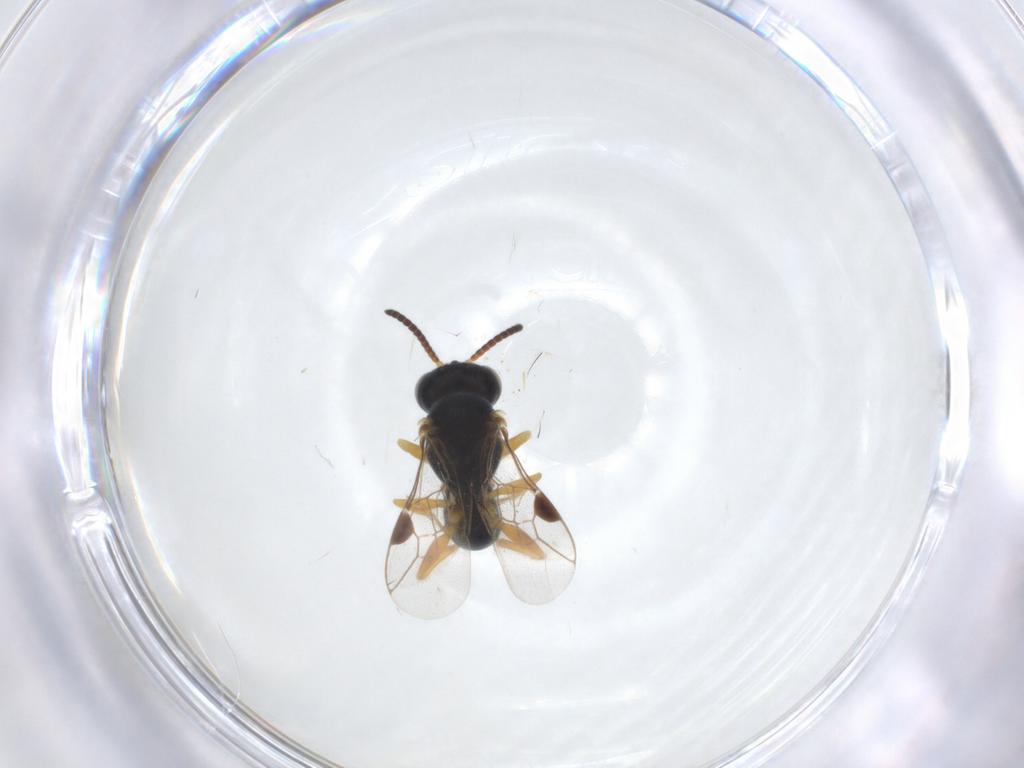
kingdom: Animalia
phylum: Arthropoda
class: Insecta
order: Hymenoptera
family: Crabronidae
